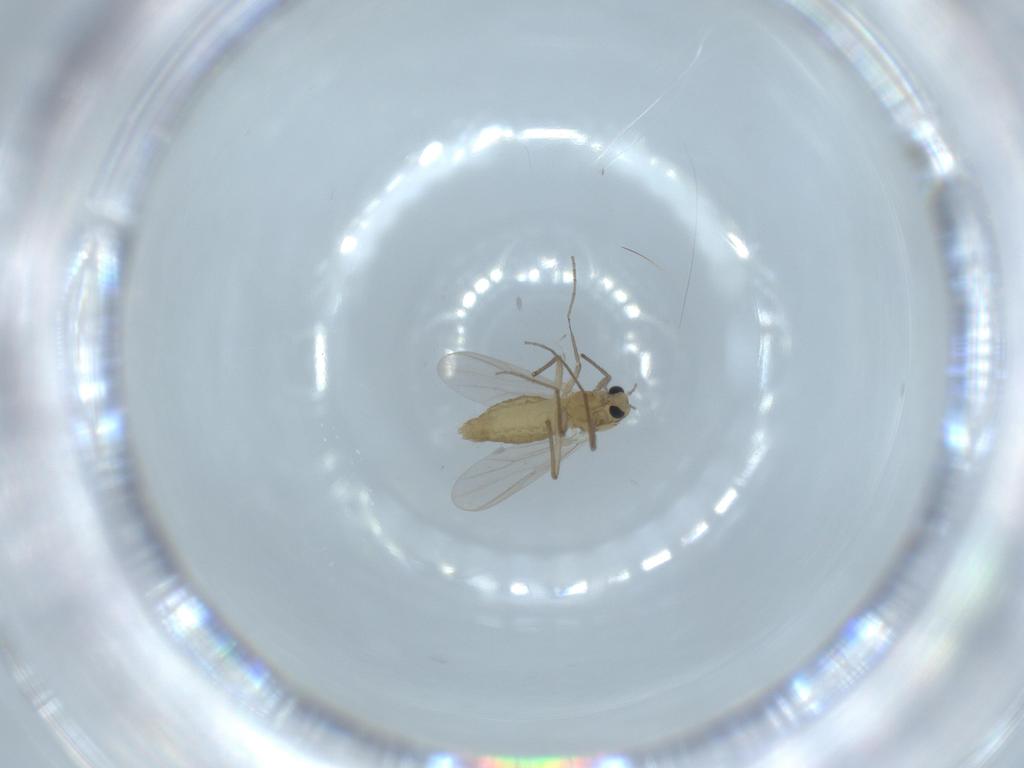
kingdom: Animalia
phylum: Arthropoda
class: Insecta
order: Diptera
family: Chironomidae
